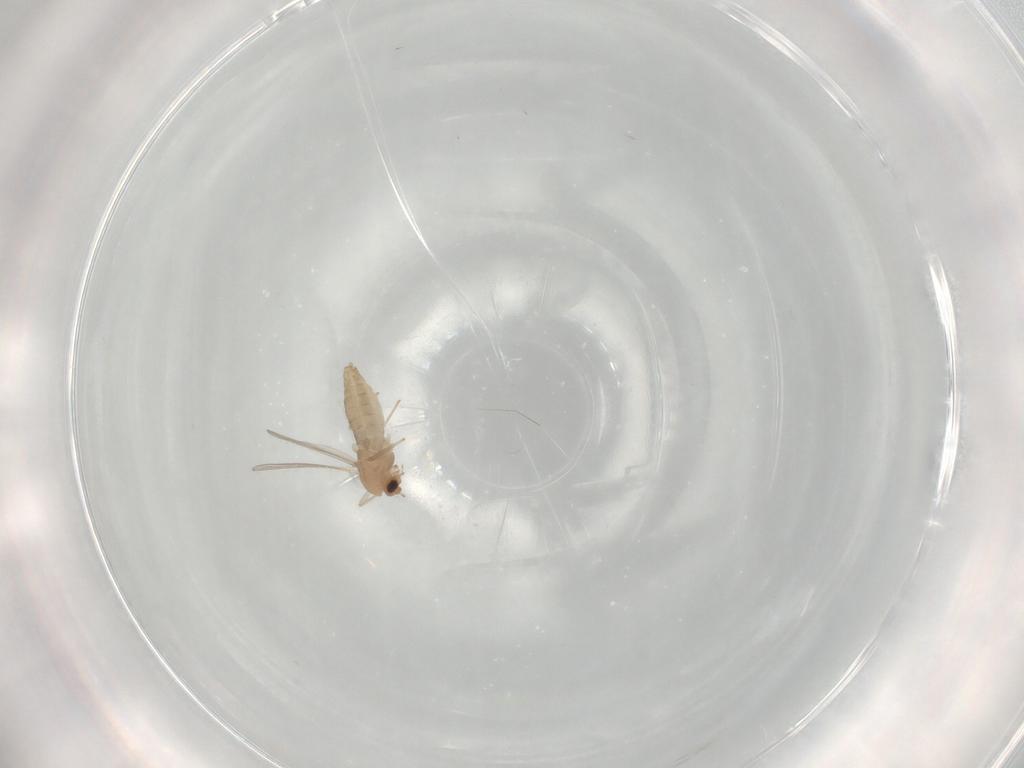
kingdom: Animalia
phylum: Arthropoda
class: Insecta
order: Diptera
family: Chironomidae
